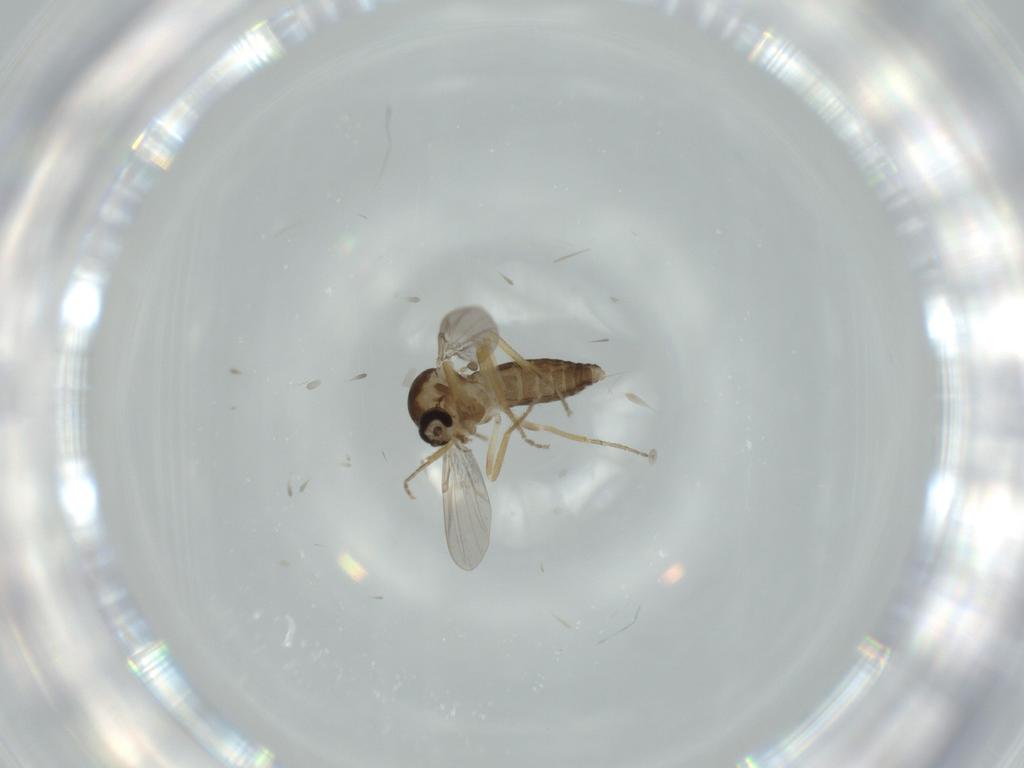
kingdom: Animalia
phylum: Arthropoda
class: Insecta
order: Diptera
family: Ceratopogonidae
